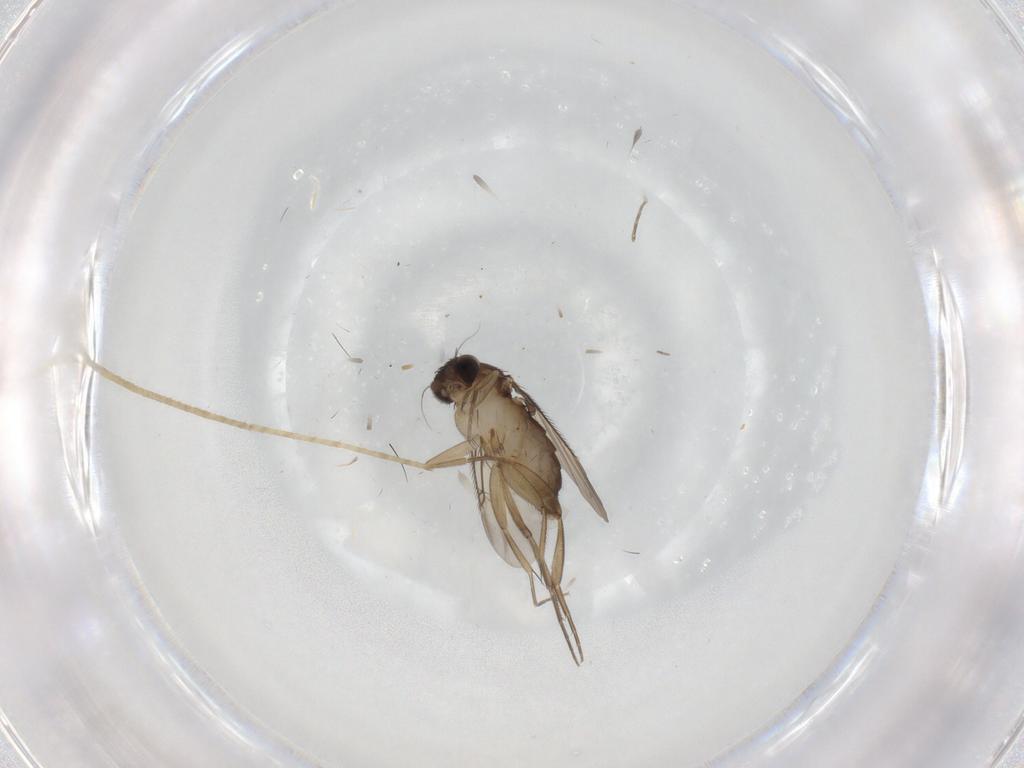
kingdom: Animalia
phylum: Arthropoda
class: Insecta
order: Diptera
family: Phoridae
